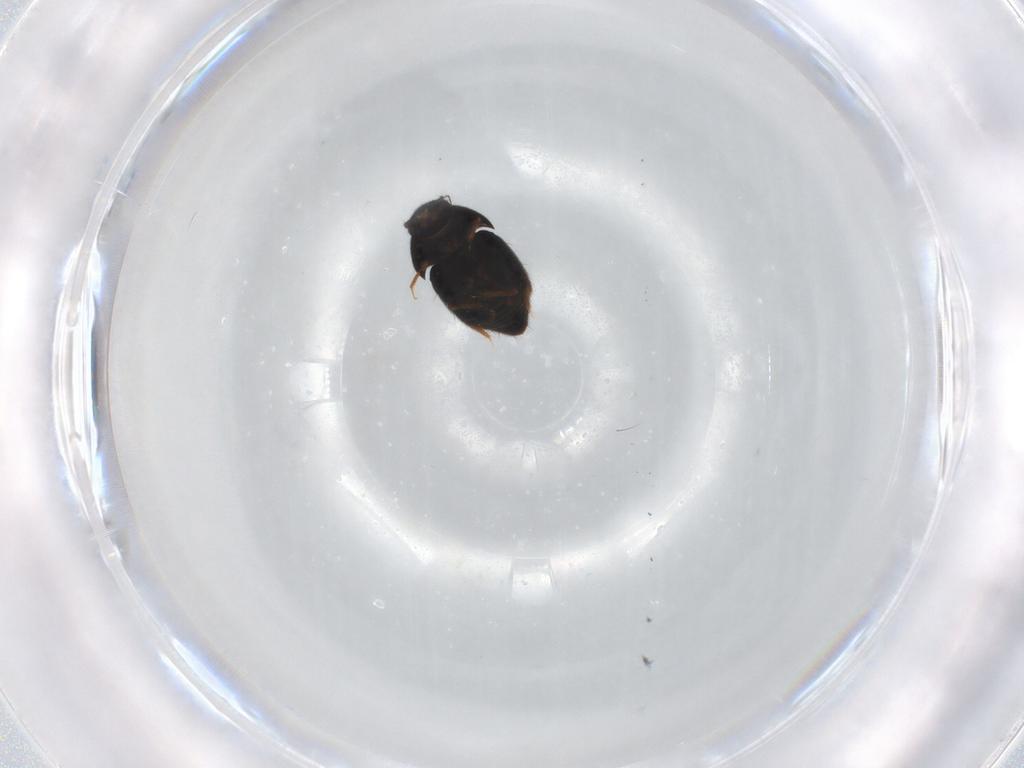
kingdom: Animalia
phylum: Arthropoda
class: Insecta
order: Coleoptera
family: Ptiliidae
